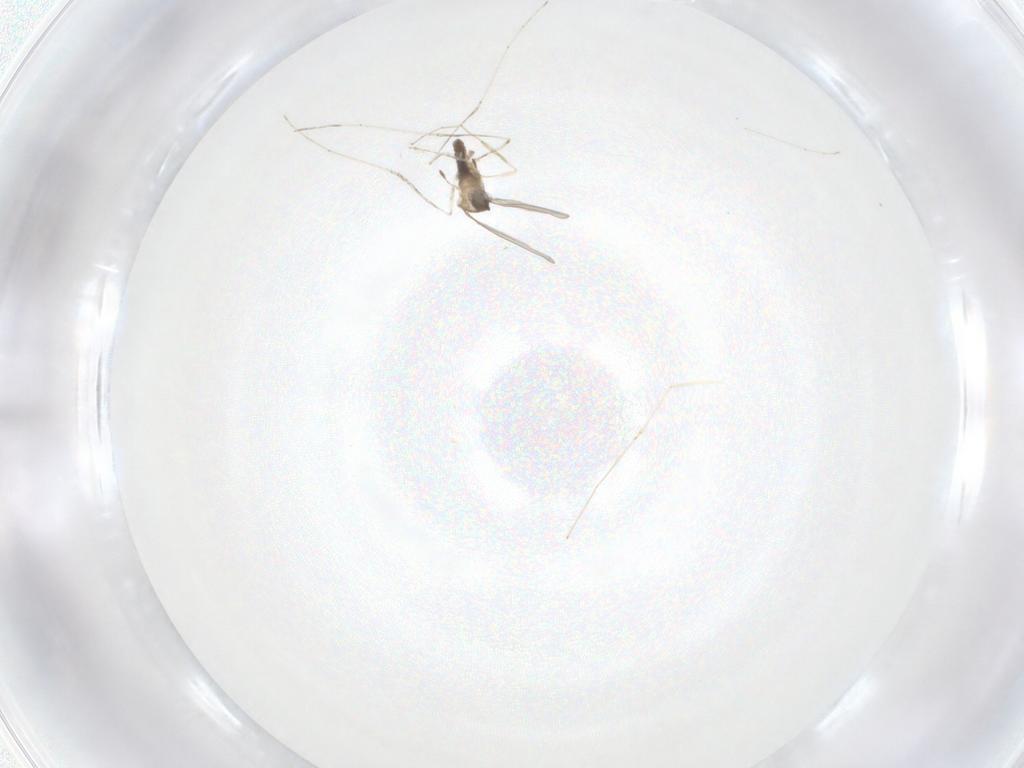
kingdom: Animalia
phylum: Arthropoda
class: Insecta
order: Diptera
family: Cecidomyiidae
